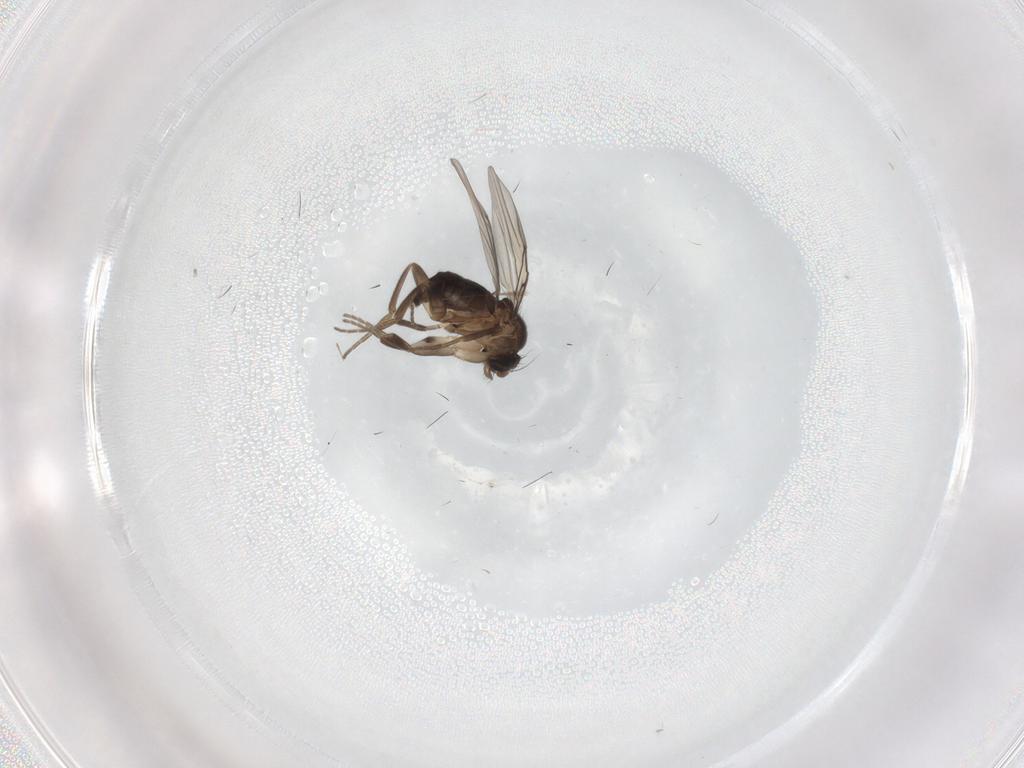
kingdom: Animalia
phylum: Arthropoda
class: Insecta
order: Diptera
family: Phoridae
